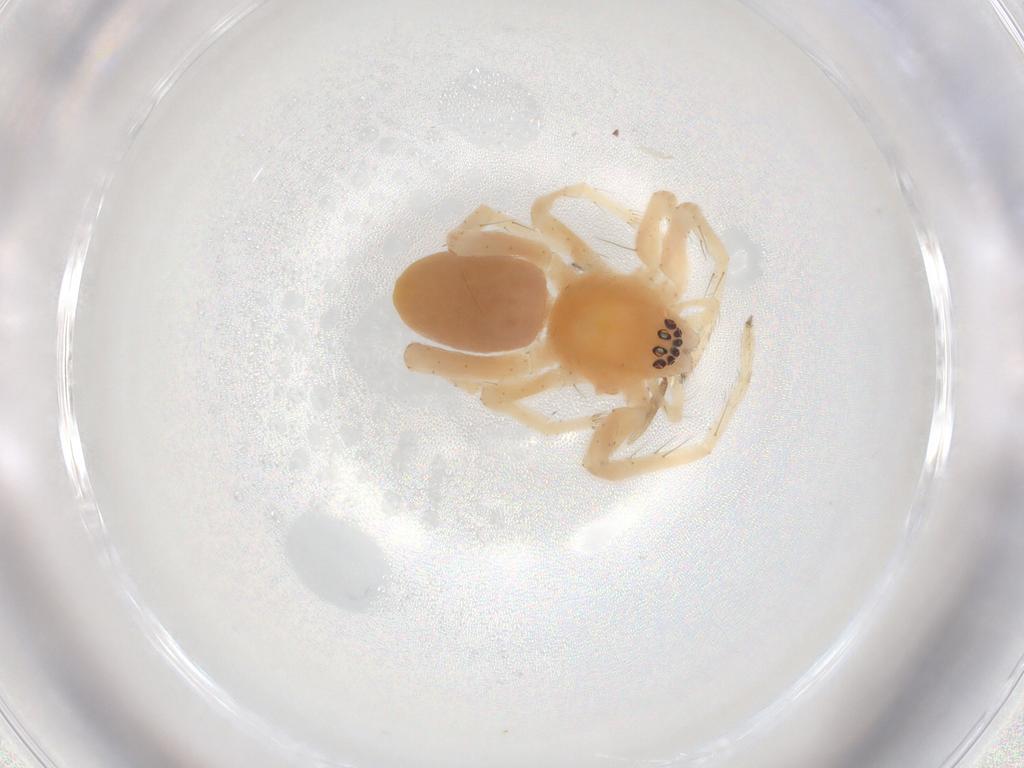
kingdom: Animalia
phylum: Arthropoda
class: Arachnida
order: Araneae
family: Anyphaenidae
